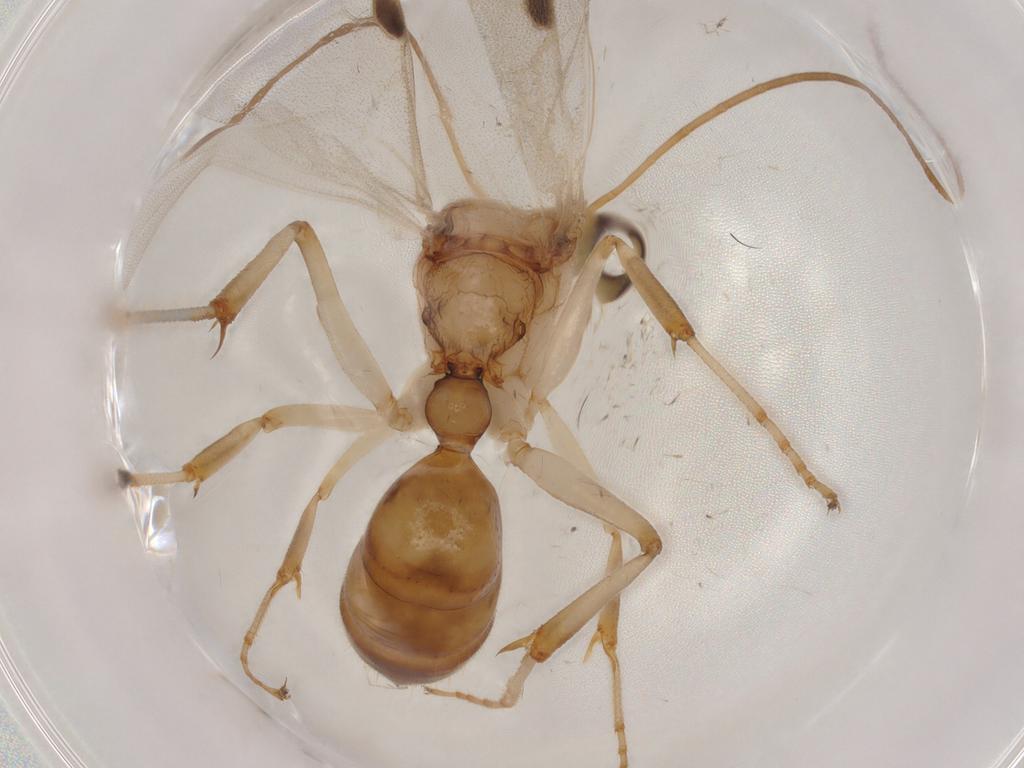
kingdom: Animalia
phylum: Arthropoda
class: Insecta
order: Hymenoptera
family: Formicidae
